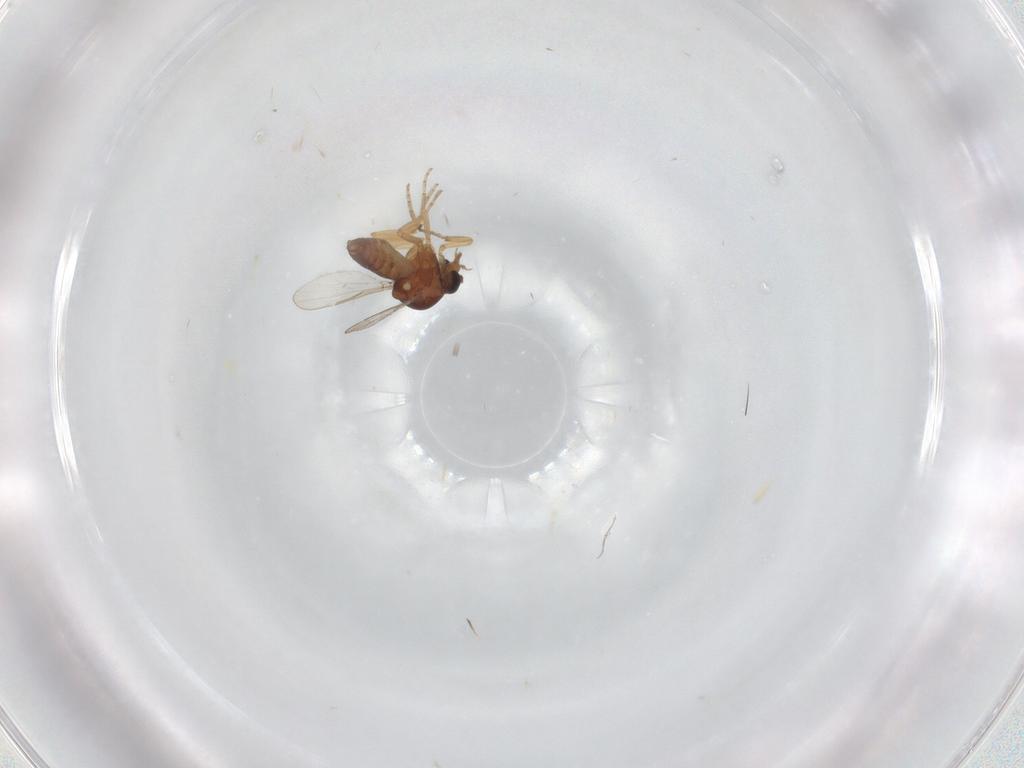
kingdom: Animalia
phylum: Arthropoda
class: Insecta
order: Diptera
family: Ceratopogonidae
